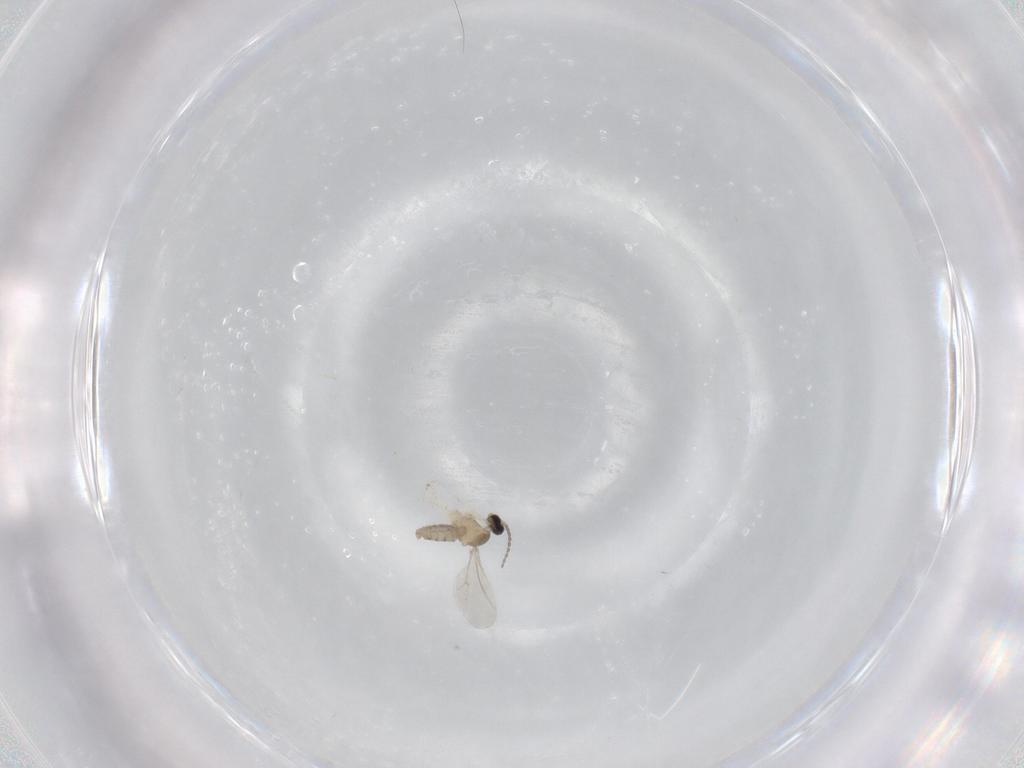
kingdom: Animalia
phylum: Arthropoda
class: Insecta
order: Diptera
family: Cecidomyiidae
